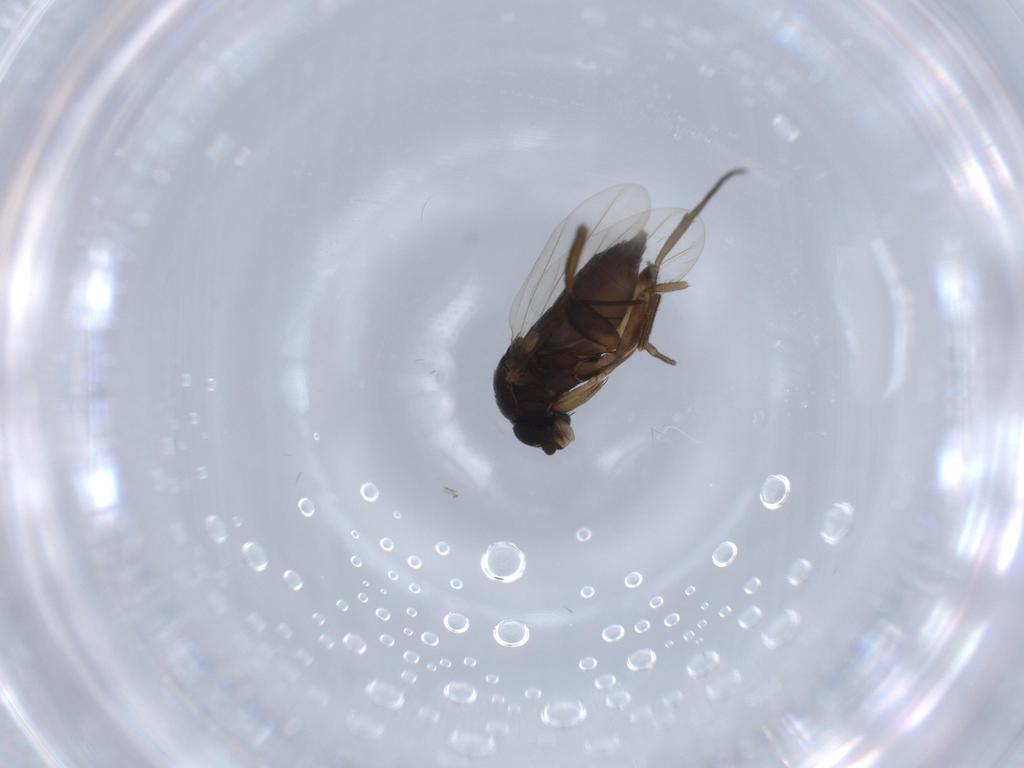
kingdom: Animalia
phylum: Arthropoda
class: Insecta
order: Diptera
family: Phoridae
